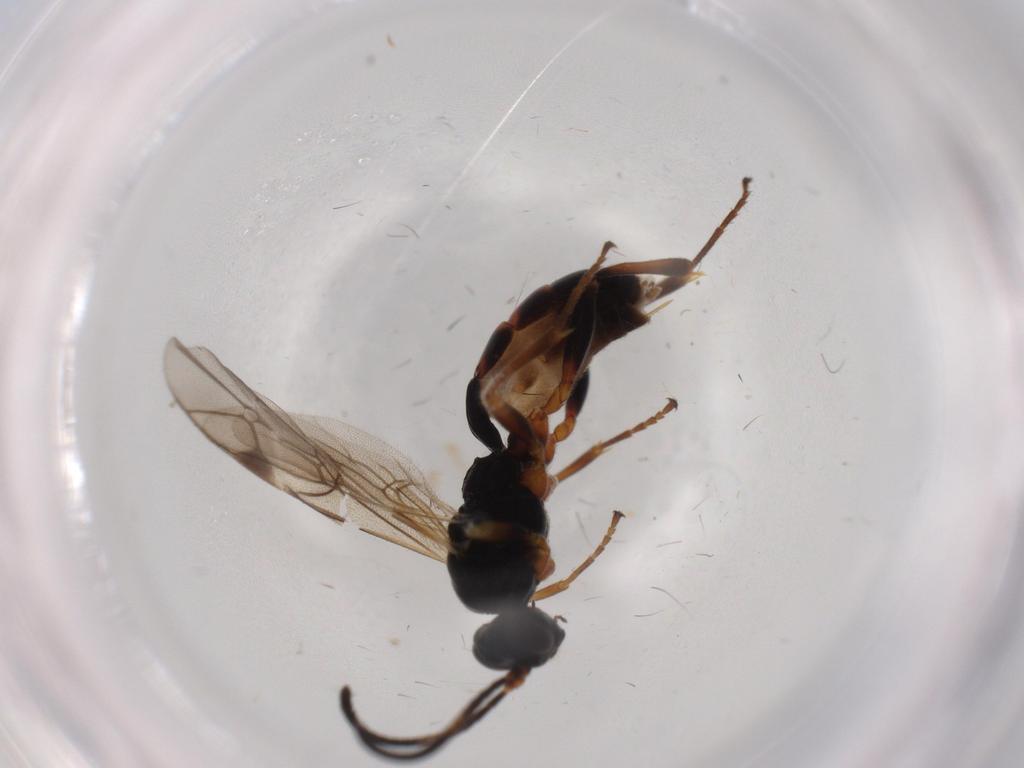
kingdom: Animalia
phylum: Arthropoda
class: Insecta
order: Hymenoptera
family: Ichneumonidae
